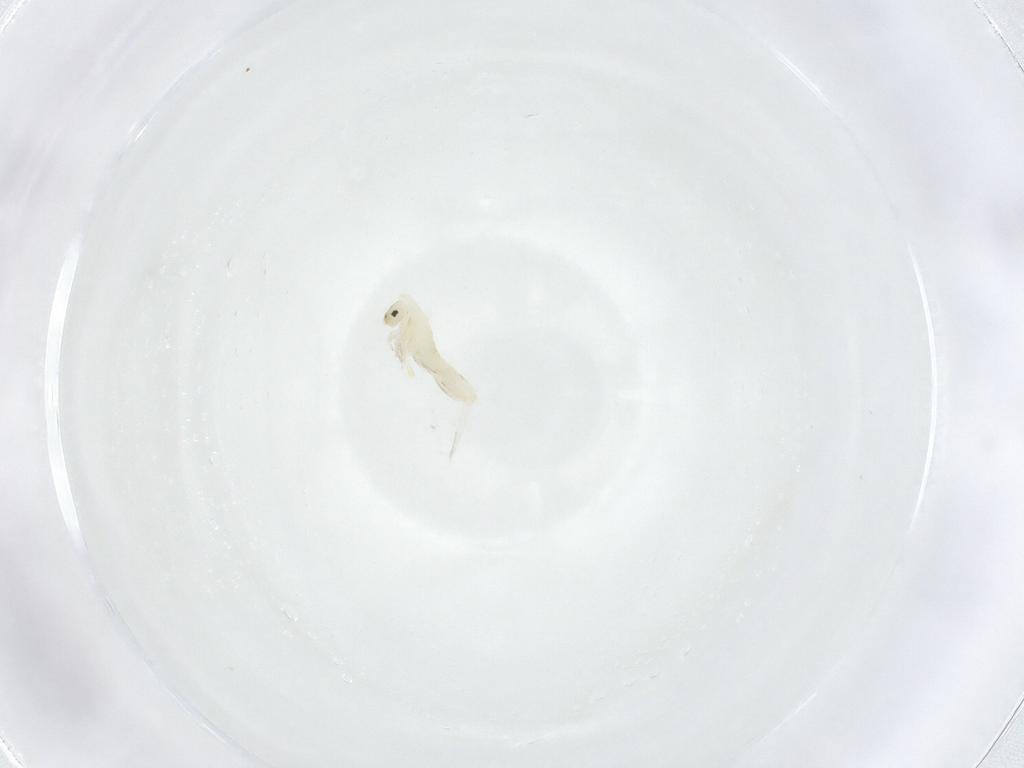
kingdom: Animalia
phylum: Arthropoda
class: Collembola
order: Entomobryomorpha
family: Entomobryidae
